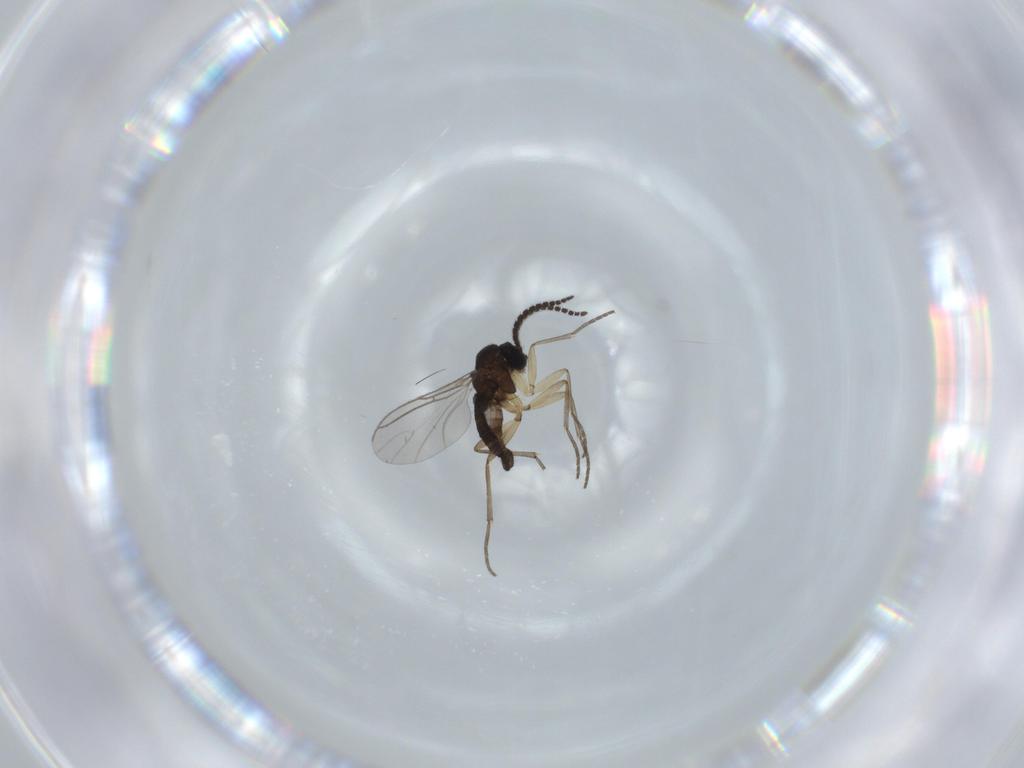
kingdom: Animalia
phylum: Arthropoda
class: Insecta
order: Diptera
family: Sciaridae
